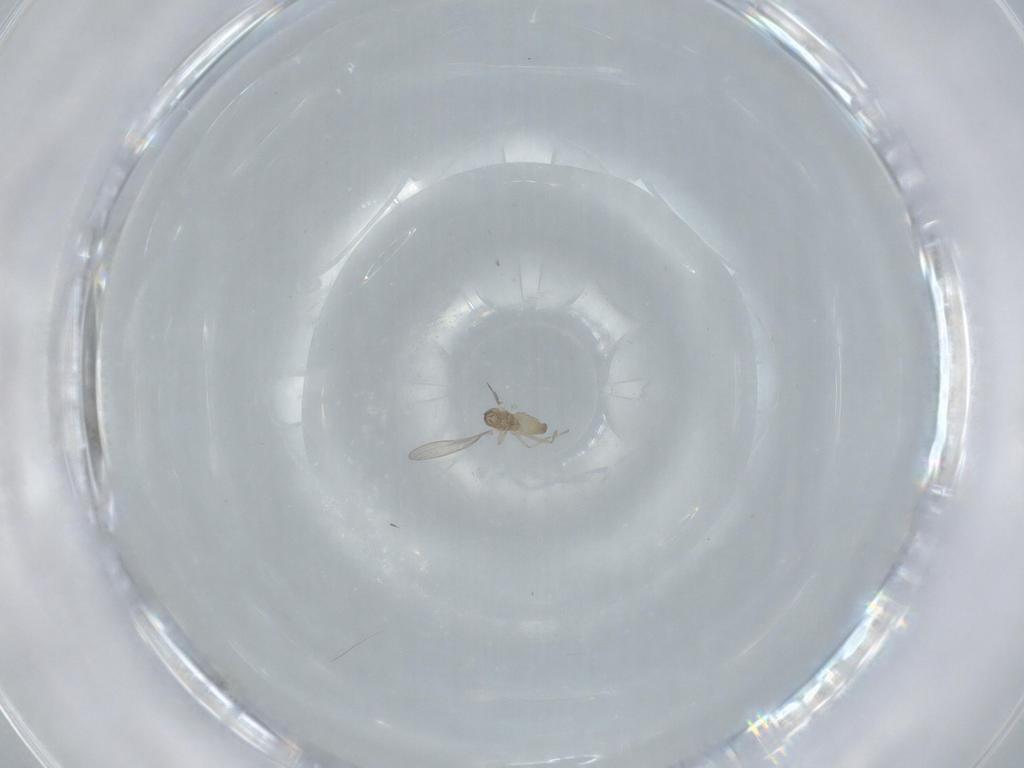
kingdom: Animalia
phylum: Arthropoda
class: Insecta
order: Diptera
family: Cecidomyiidae
